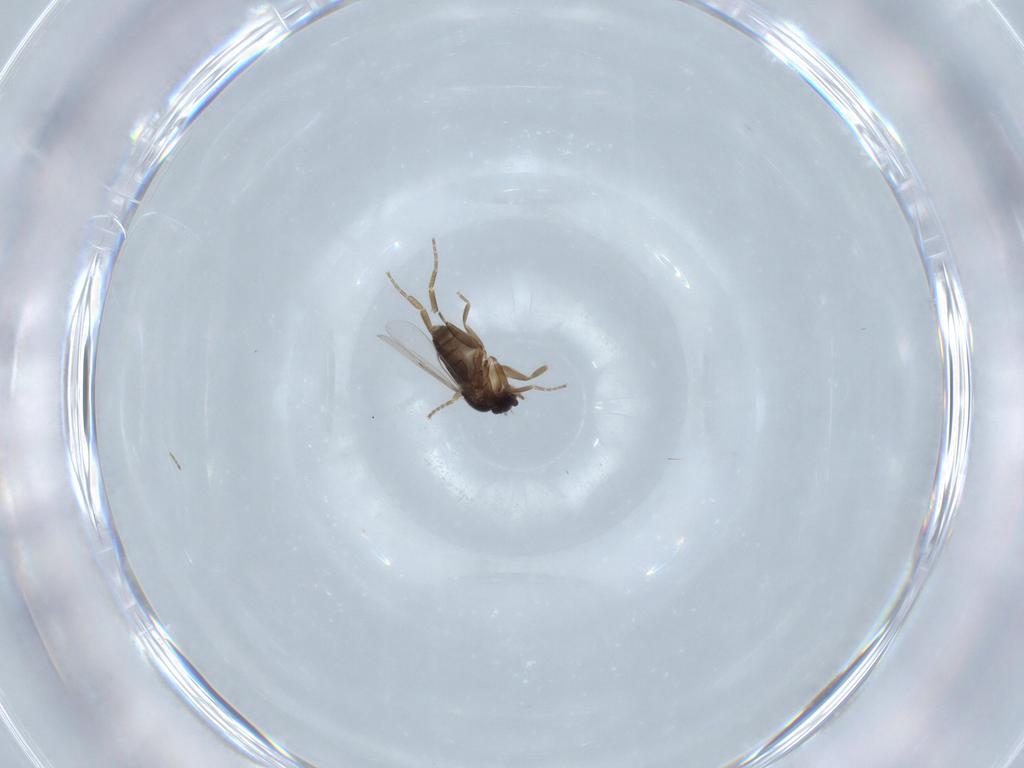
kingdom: Animalia
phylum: Arthropoda
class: Insecta
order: Diptera
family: Phoridae
